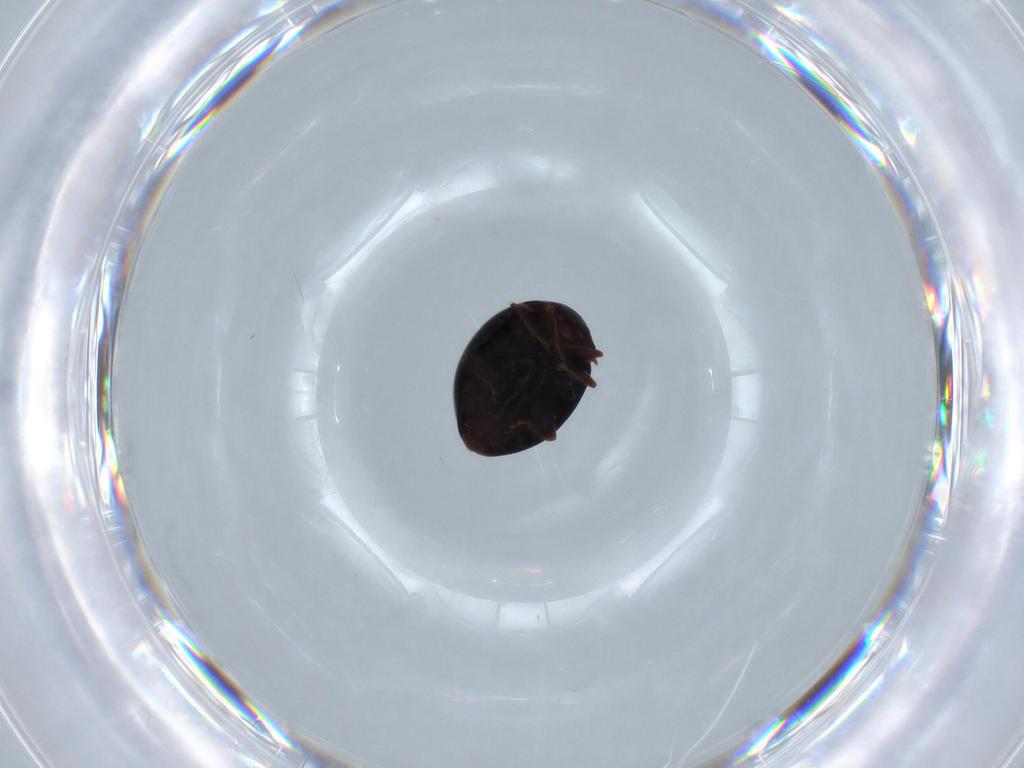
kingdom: Animalia
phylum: Arthropoda
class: Insecta
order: Coleoptera
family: Coccinellidae
